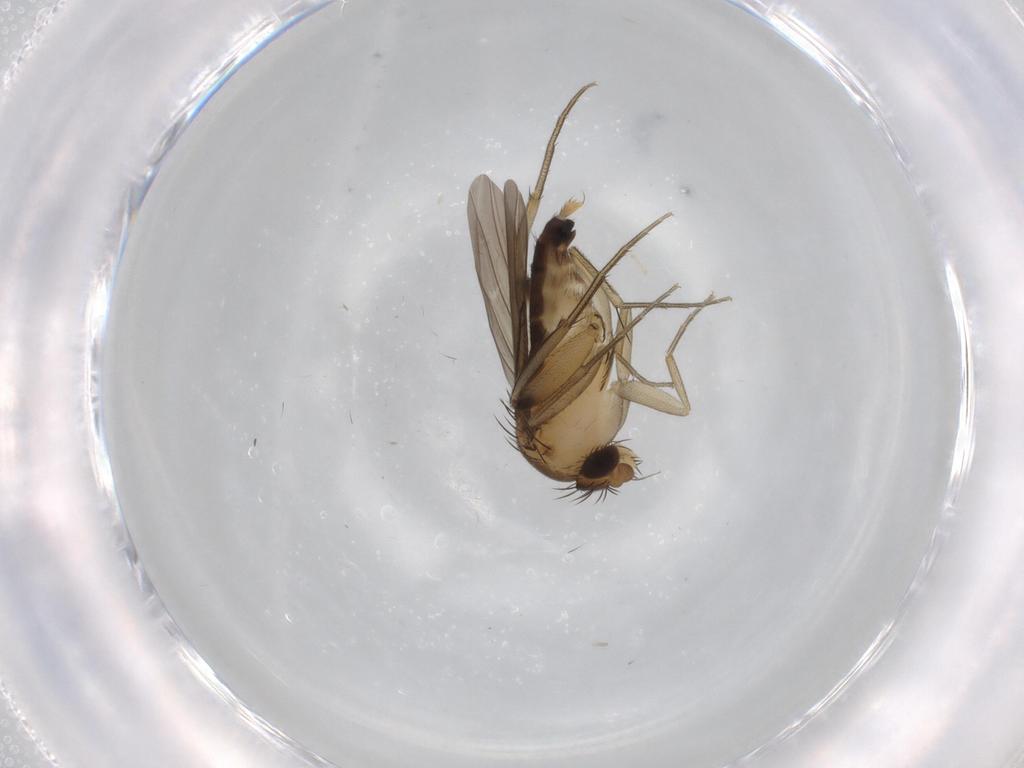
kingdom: Animalia
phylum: Arthropoda
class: Insecta
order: Diptera
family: Phoridae
